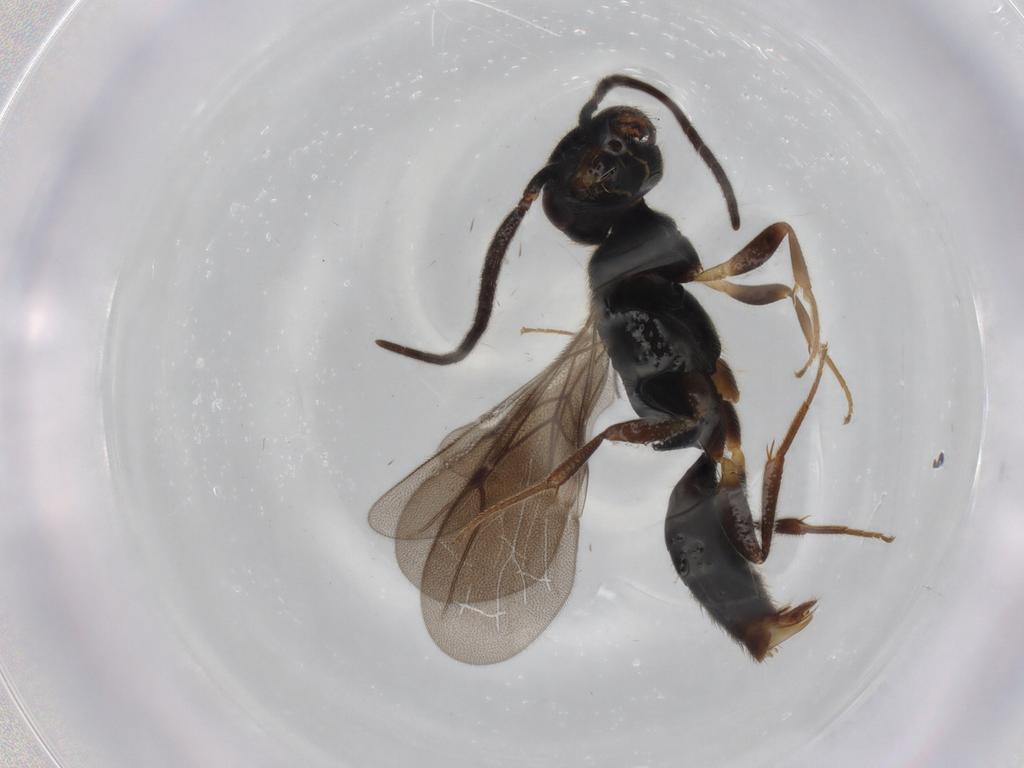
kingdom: Animalia
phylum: Arthropoda
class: Insecta
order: Hymenoptera
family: Bethylidae
